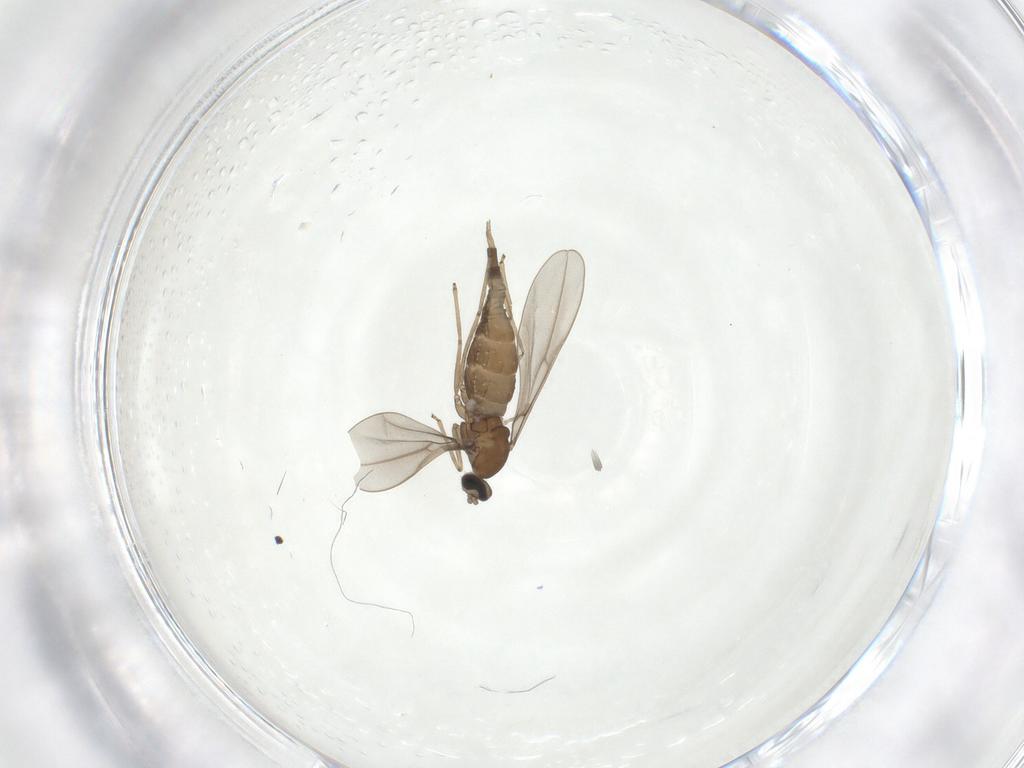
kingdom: Animalia
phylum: Arthropoda
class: Insecta
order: Diptera
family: Cecidomyiidae
